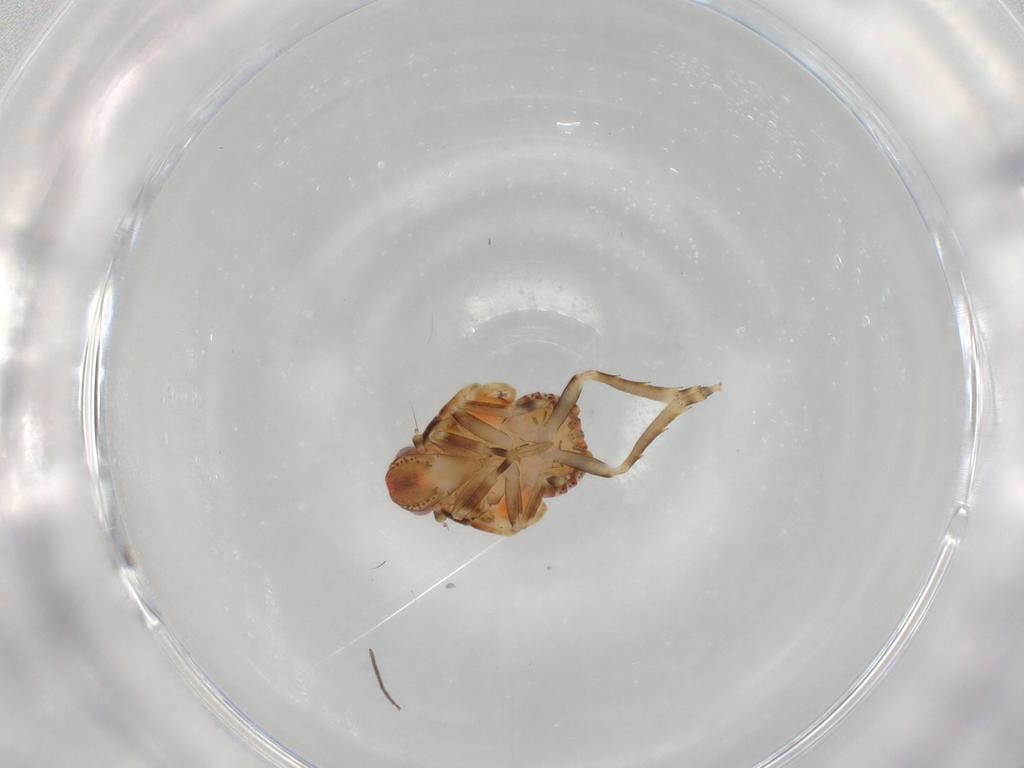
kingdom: Animalia
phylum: Arthropoda
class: Insecta
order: Hemiptera
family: Flatidae
